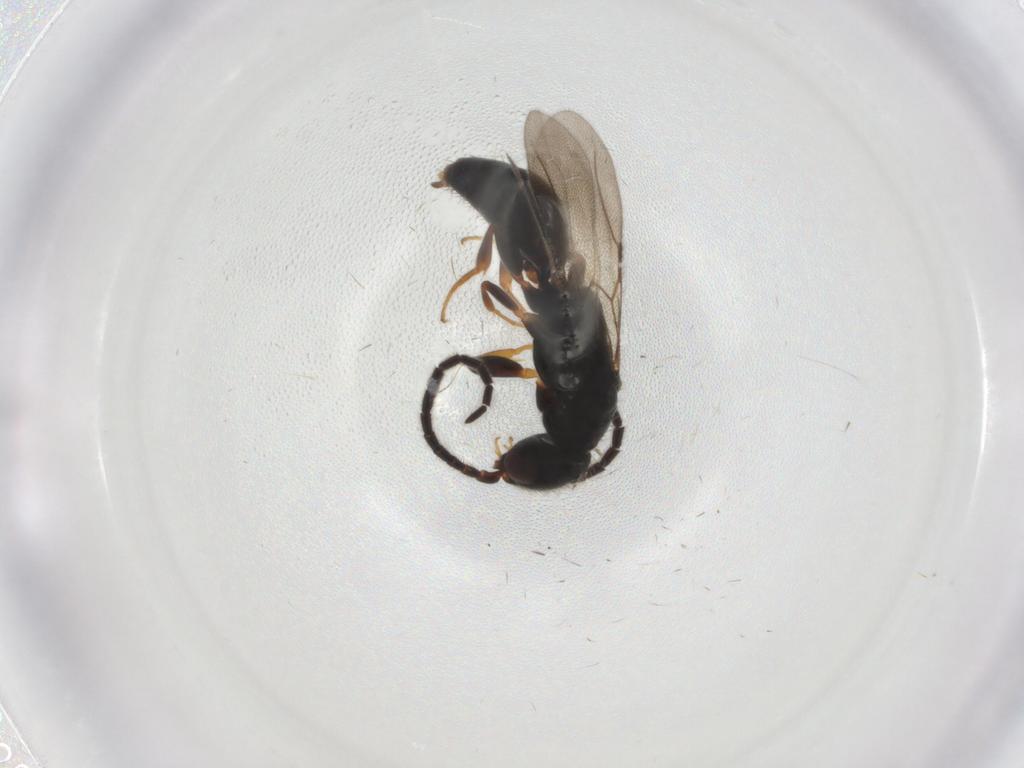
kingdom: Animalia
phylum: Arthropoda
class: Insecta
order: Hymenoptera
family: Bethylidae
